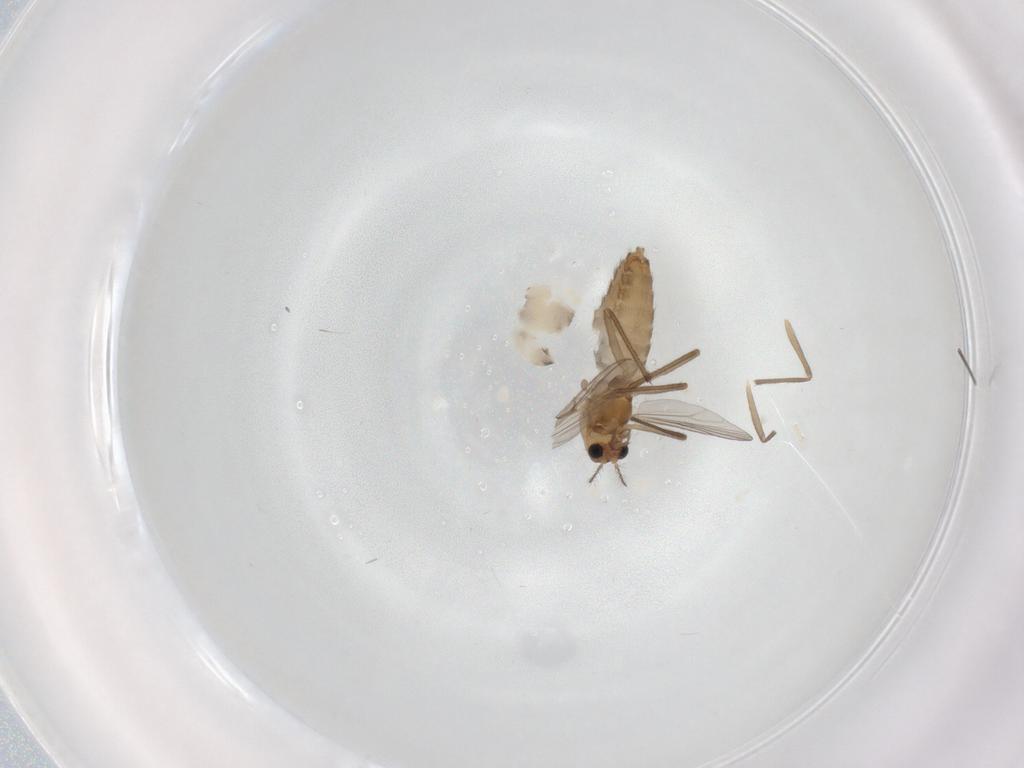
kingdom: Animalia
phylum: Arthropoda
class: Insecta
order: Diptera
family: Chironomidae
